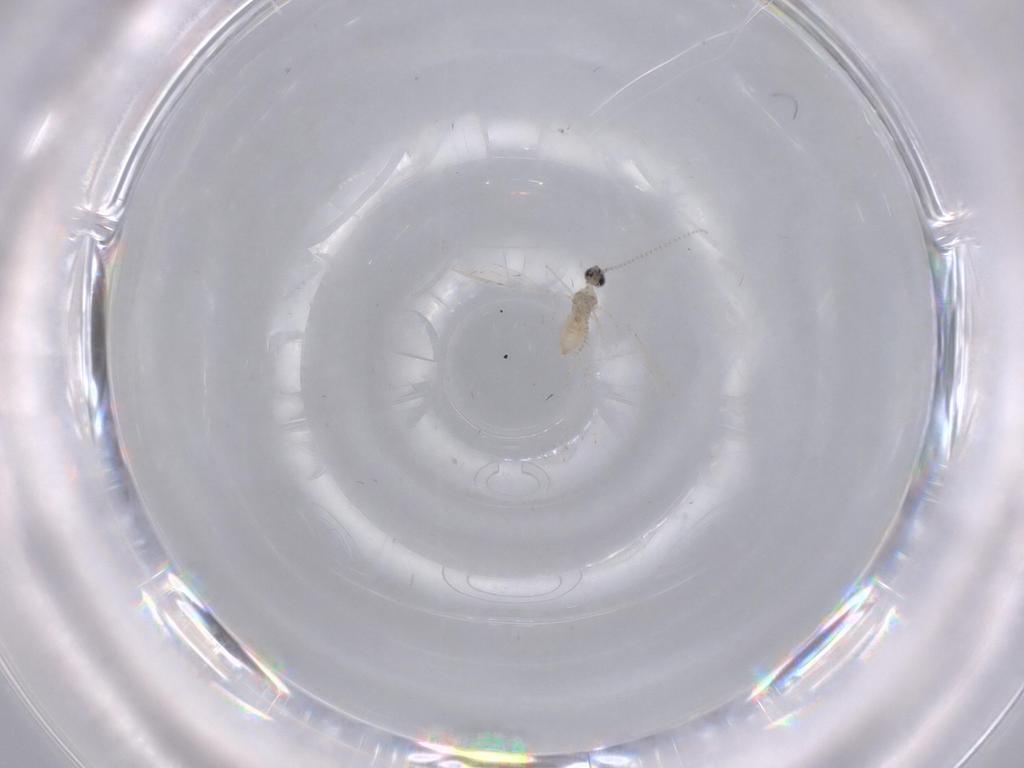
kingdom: Animalia
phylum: Arthropoda
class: Insecta
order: Diptera
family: Cecidomyiidae
